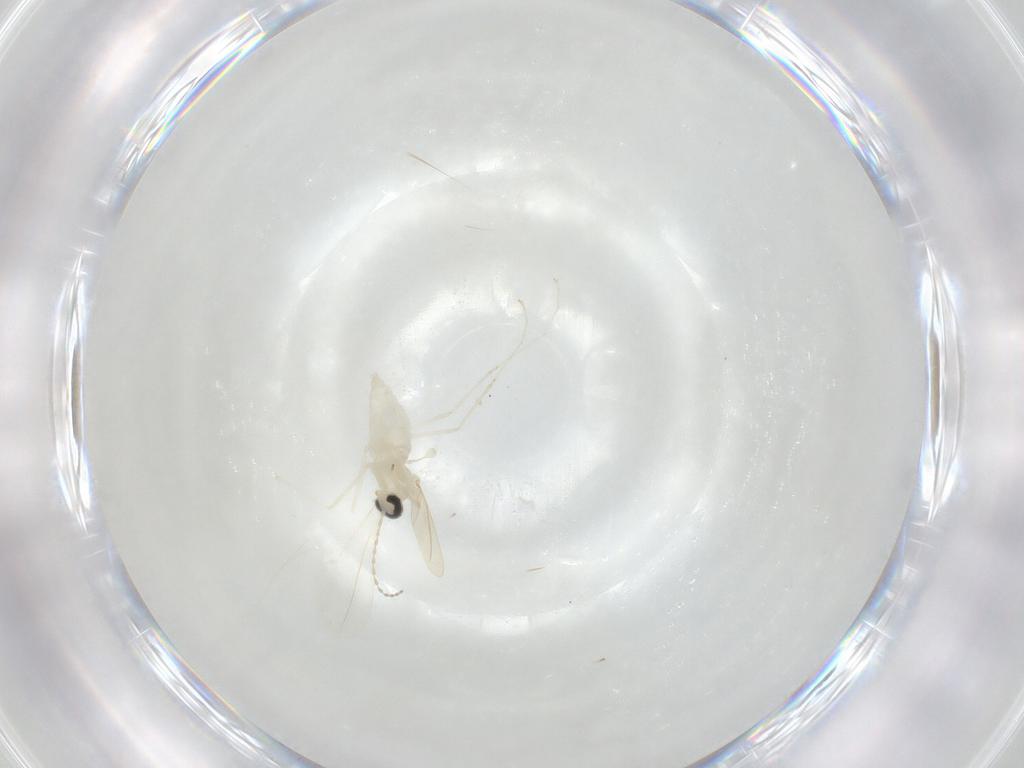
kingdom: Animalia
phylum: Arthropoda
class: Insecta
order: Diptera
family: Cecidomyiidae
